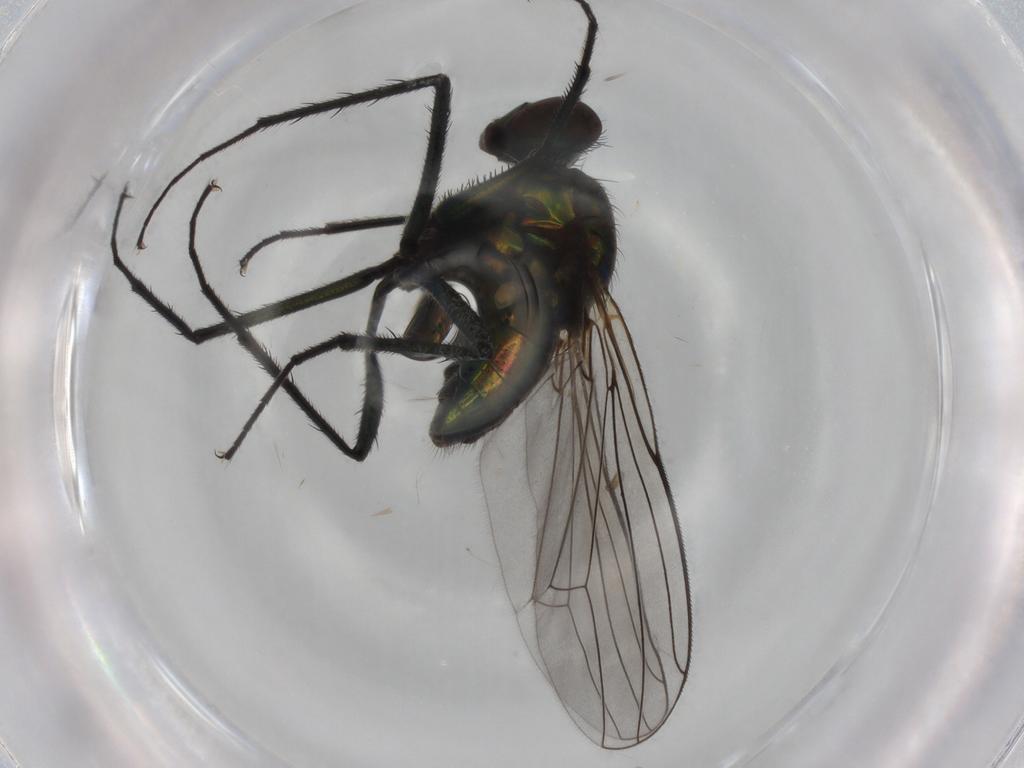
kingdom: Animalia
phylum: Arthropoda
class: Insecta
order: Diptera
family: Dolichopodidae
